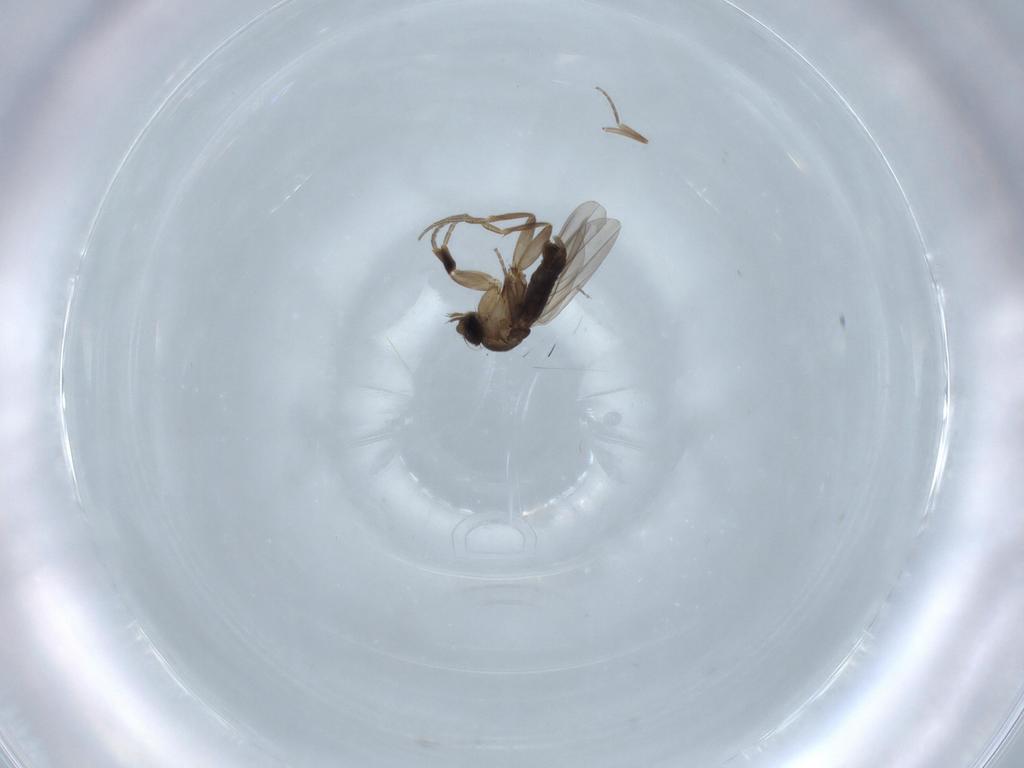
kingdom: Animalia
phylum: Arthropoda
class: Insecta
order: Diptera
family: Phoridae
